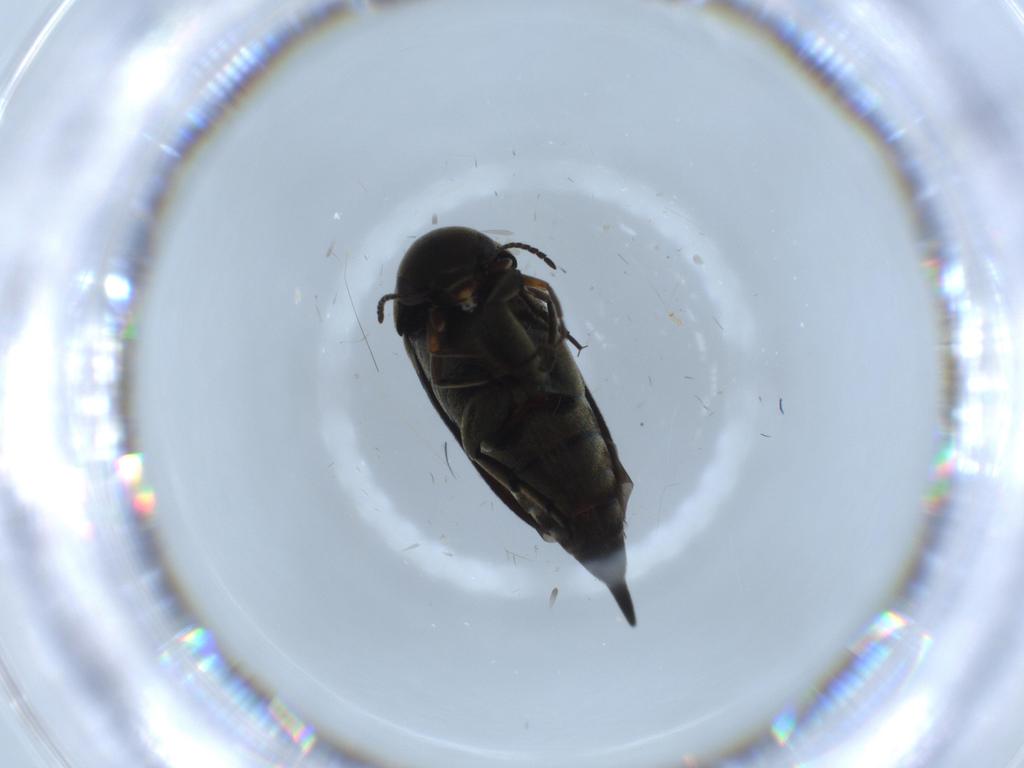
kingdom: Animalia
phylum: Arthropoda
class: Insecta
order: Coleoptera
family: Mordellidae
